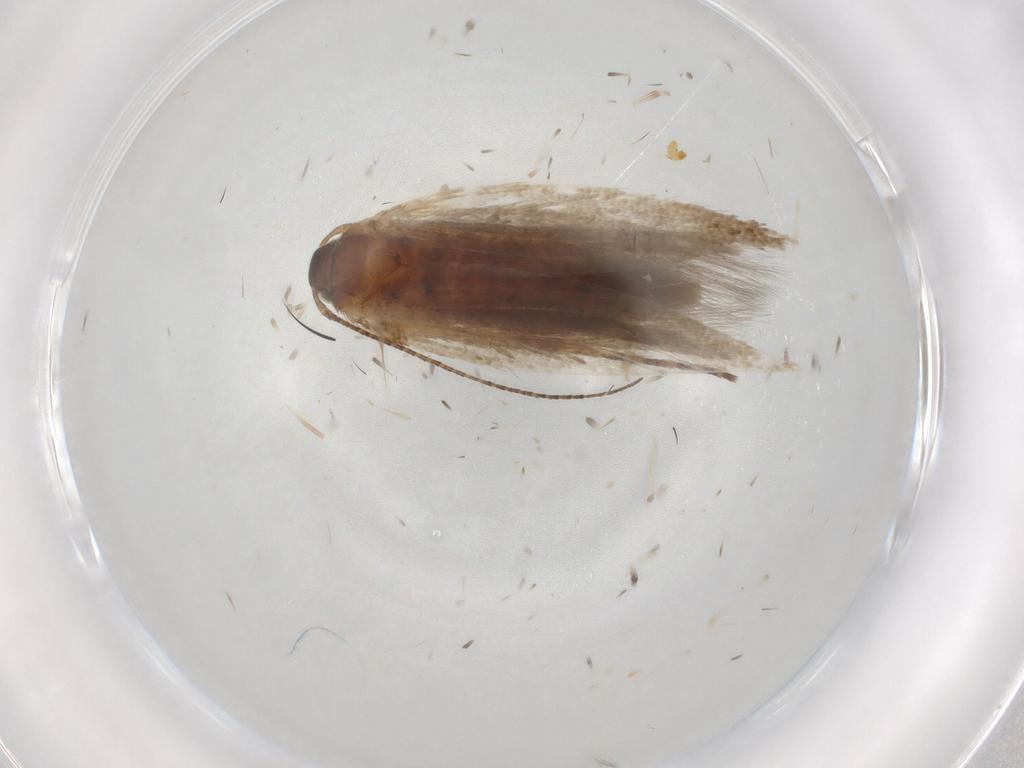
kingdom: Animalia
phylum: Arthropoda
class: Insecta
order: Lepidoptera
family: Gelechiidae
